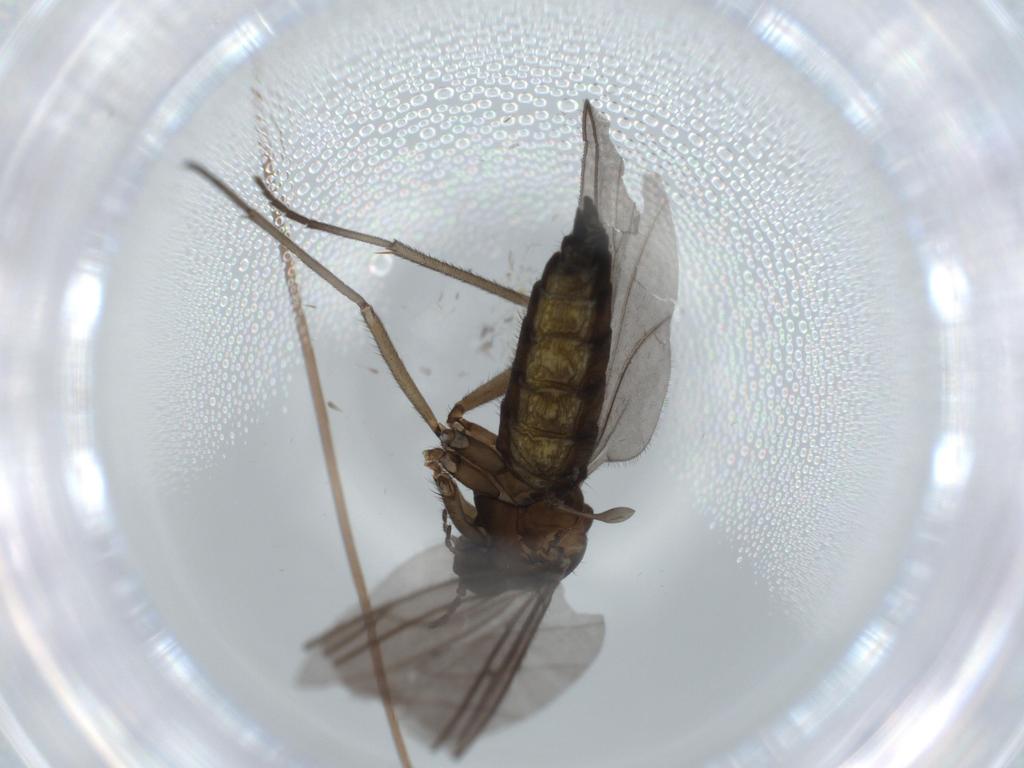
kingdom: Animalia
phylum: Arthropoda
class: Insecta
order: Diptera
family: Sciaridae
